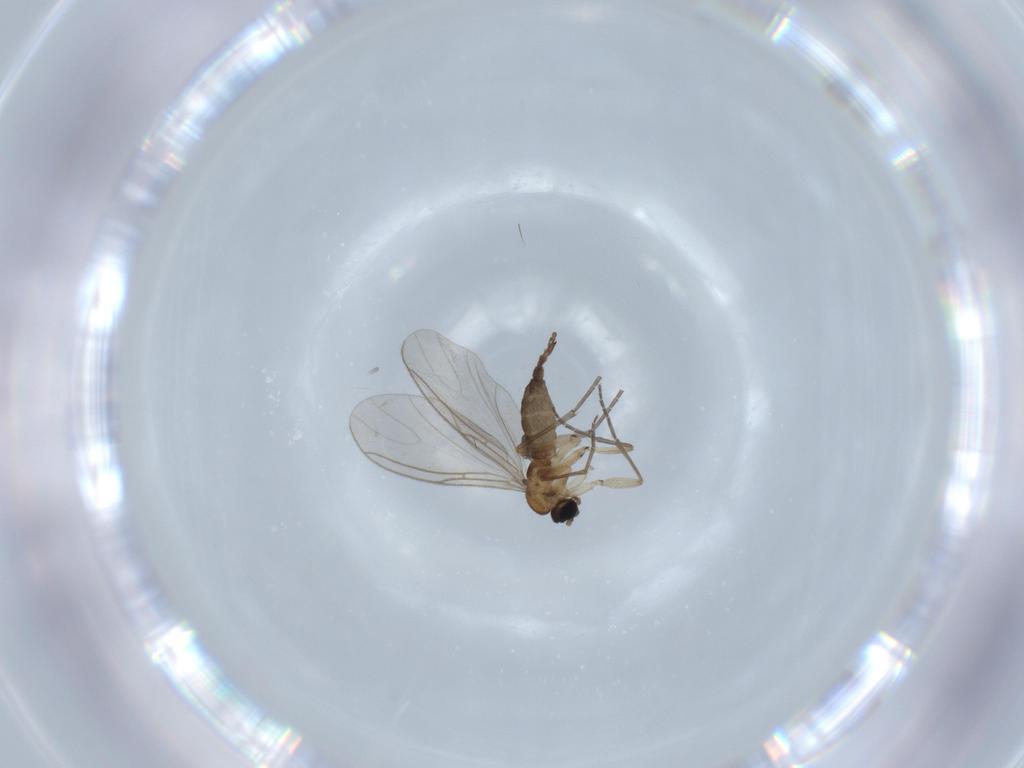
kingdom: Animalia
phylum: Arthropoda
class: Insecta
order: Diptera
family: Sciaridae
